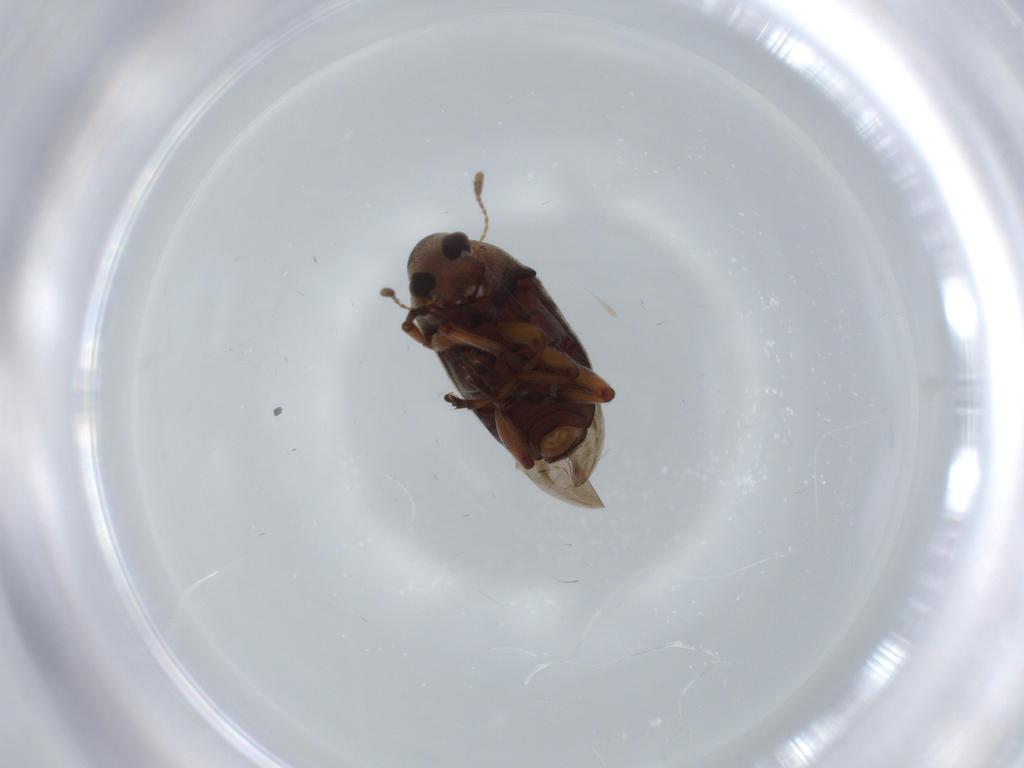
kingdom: Animalia
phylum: Arthropoda
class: Insecta
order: Coleoptera
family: Anthribidae
